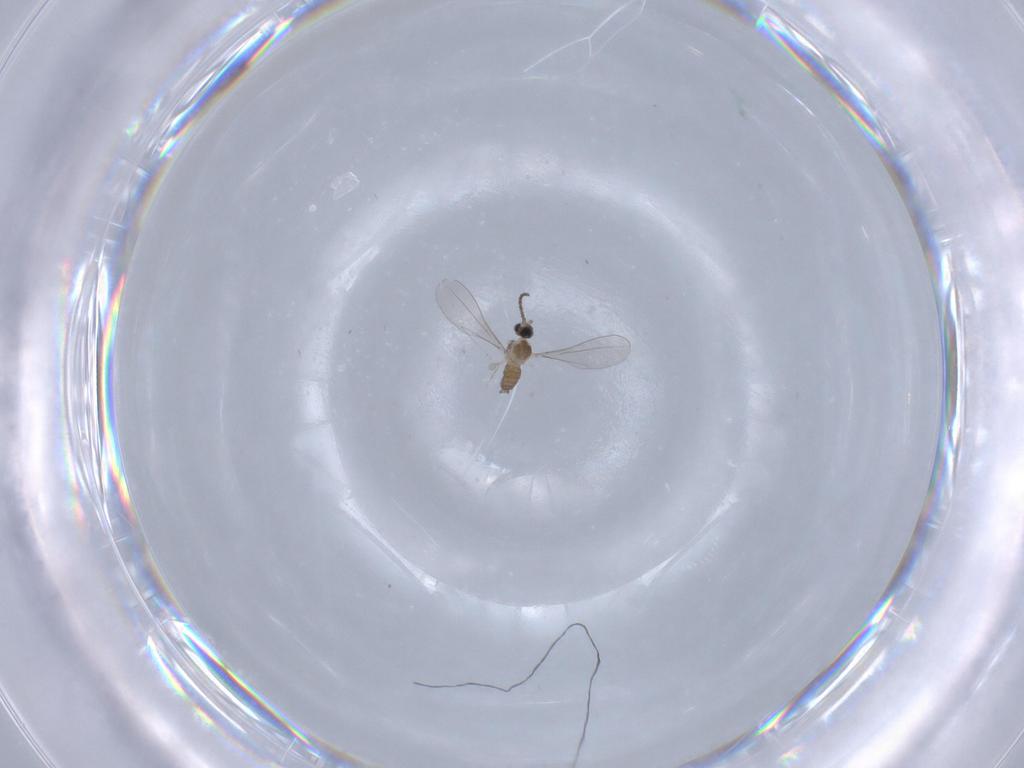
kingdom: Animalia
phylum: Arthropoda
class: Insecta
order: Diptera
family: Cecidomyiidae
